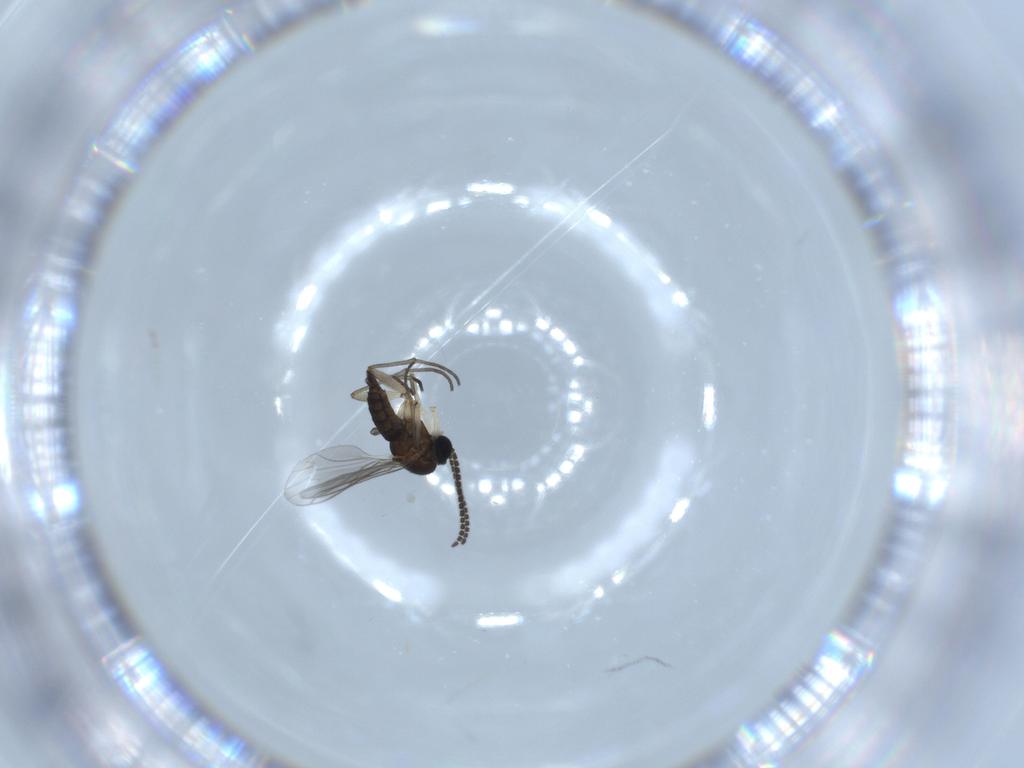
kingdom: Animalia
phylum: Arthropoda
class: Insecta
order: Diptera
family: Sciaridae
